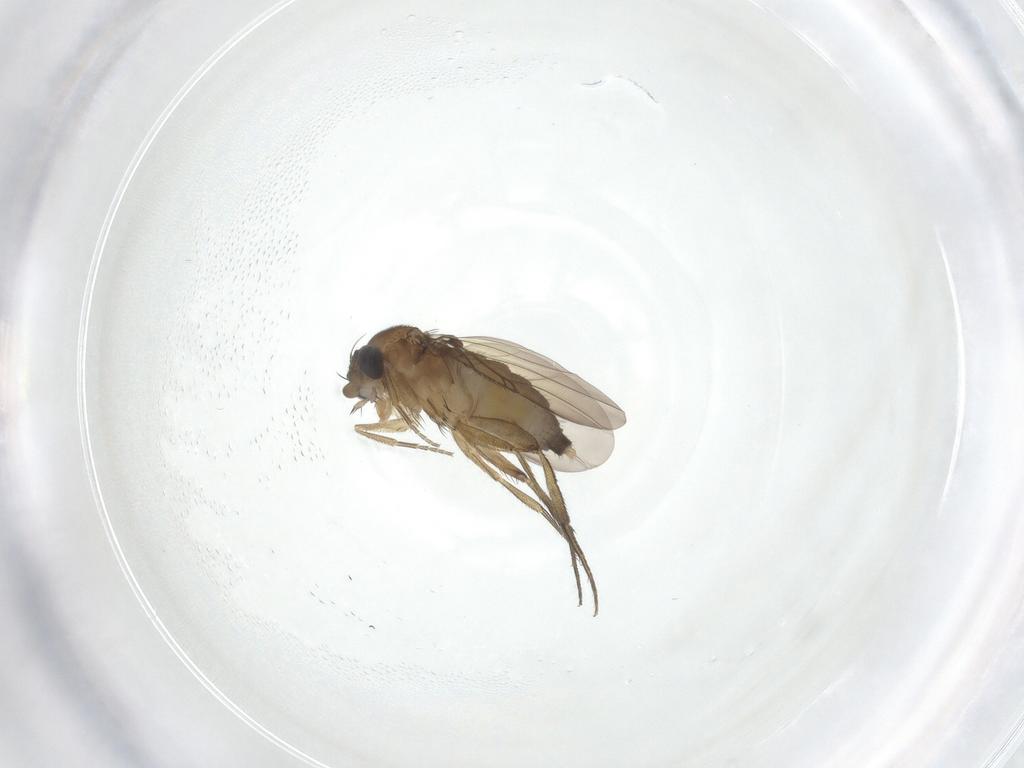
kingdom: Animalia
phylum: Arthropoda
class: Insecta
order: Diptera
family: Phoridae
